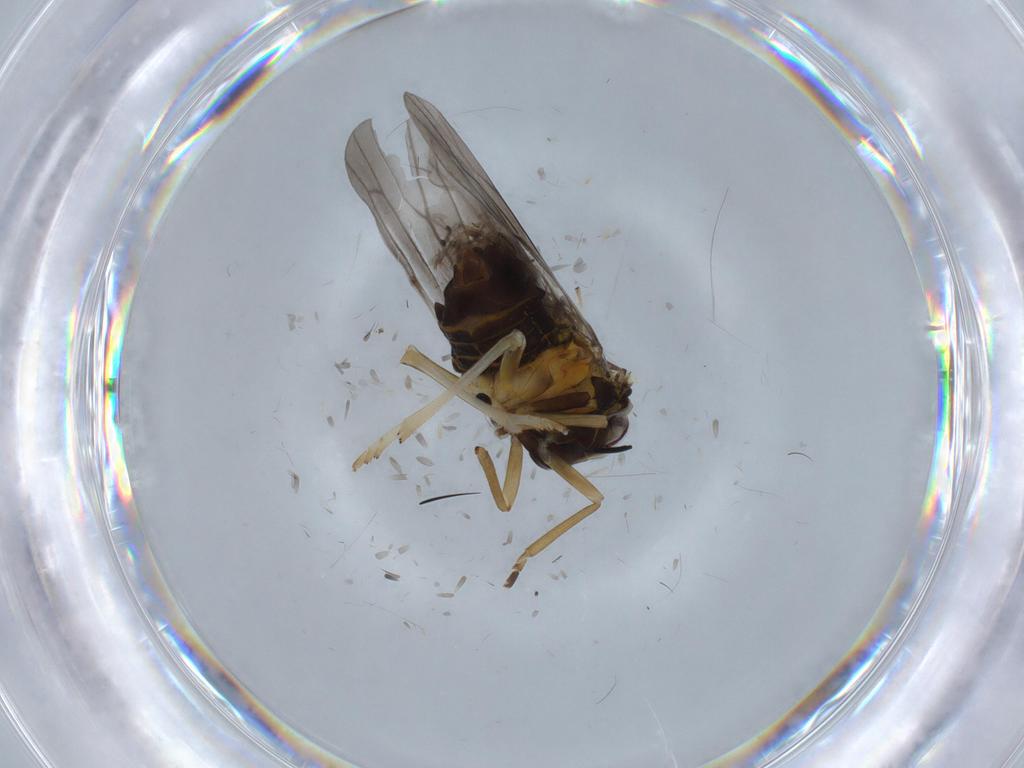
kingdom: Animalia
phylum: Arthropoda
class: Insecta
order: Hemiptera
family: Derbidae
